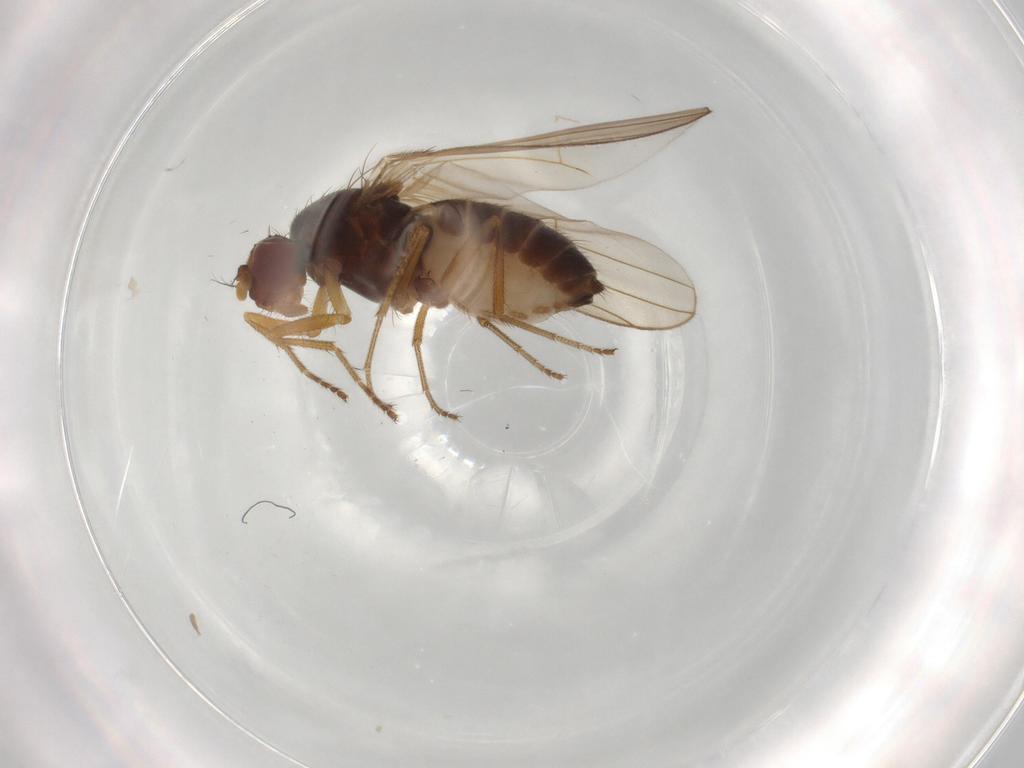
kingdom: Animalia
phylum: Arthropoda
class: Insecta
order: Diptera
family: Drosophilidae
